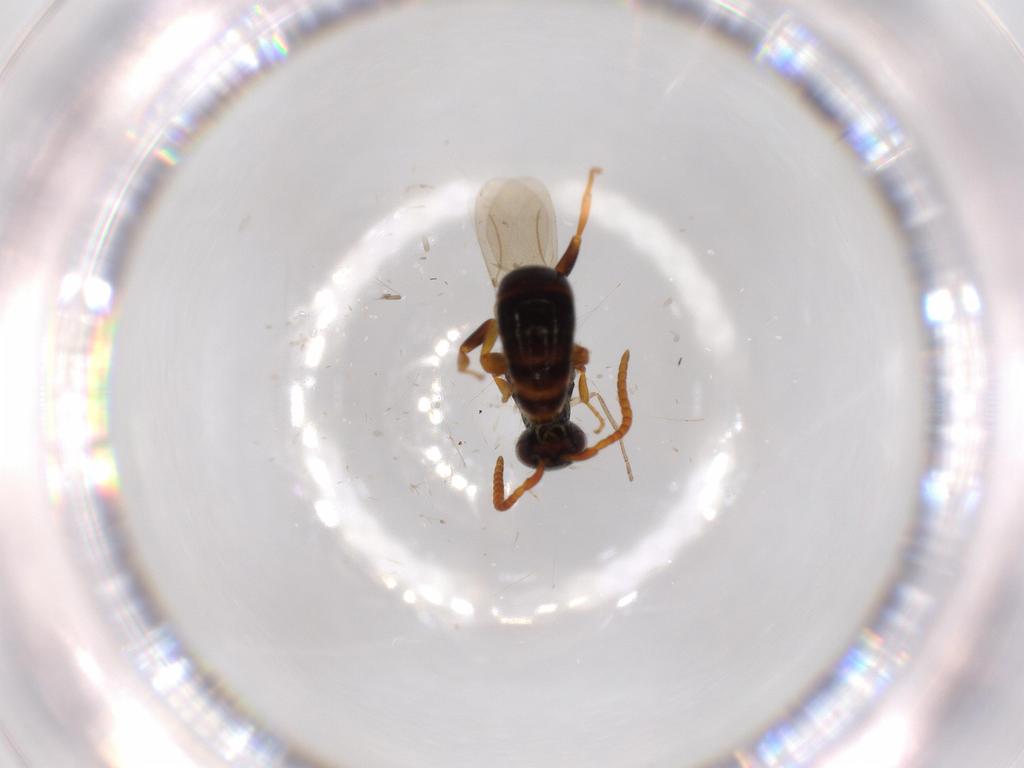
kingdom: Animalia
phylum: Arthropoda
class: Insecta
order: Hymenoptera
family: Bethylidae
